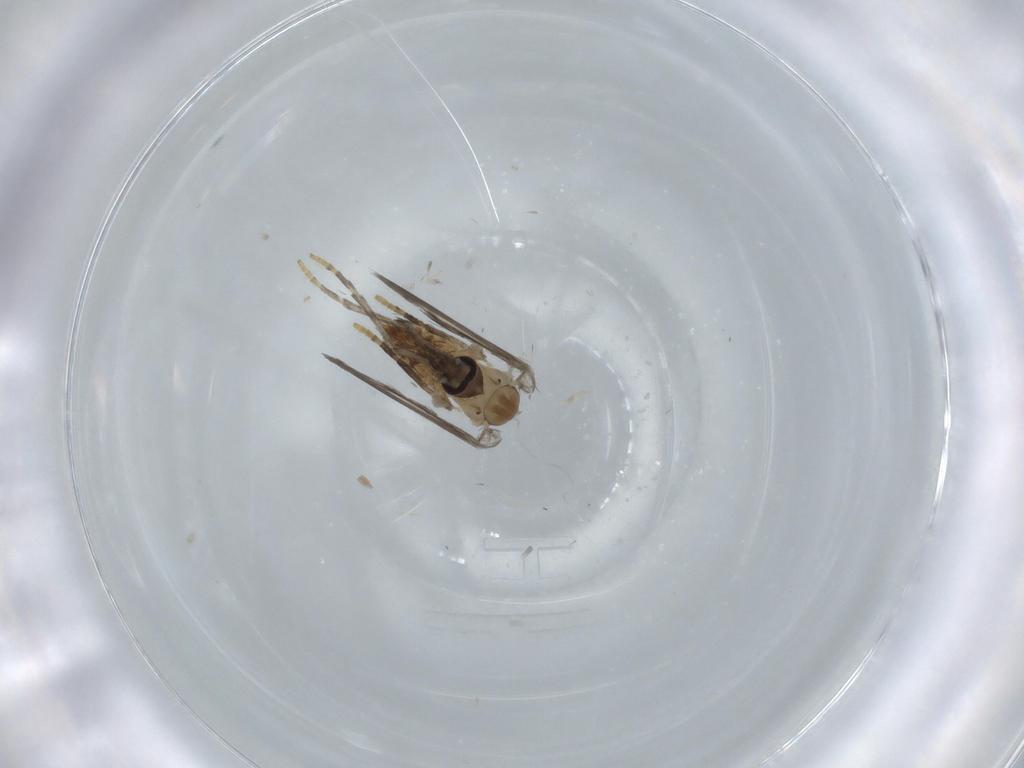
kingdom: Animalia
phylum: Arthropoda
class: Insecta
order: Diptera
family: Psychodidae
